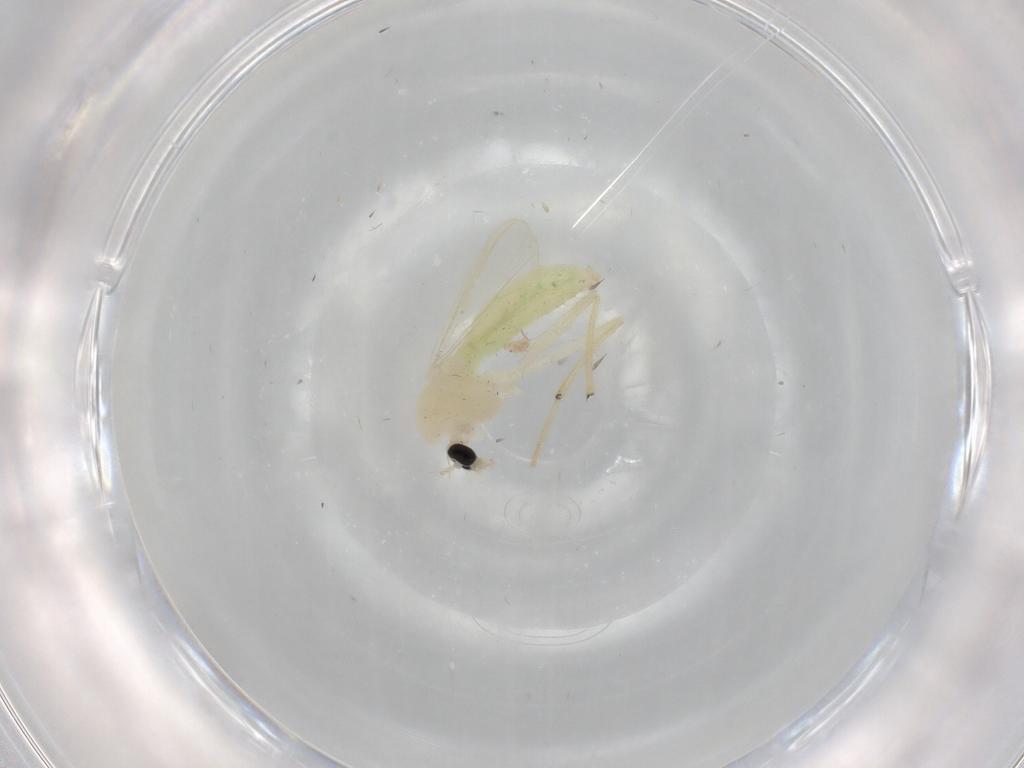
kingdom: Animalia
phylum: Arthropoda
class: Insecta
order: Diptera
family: Chironomidae
